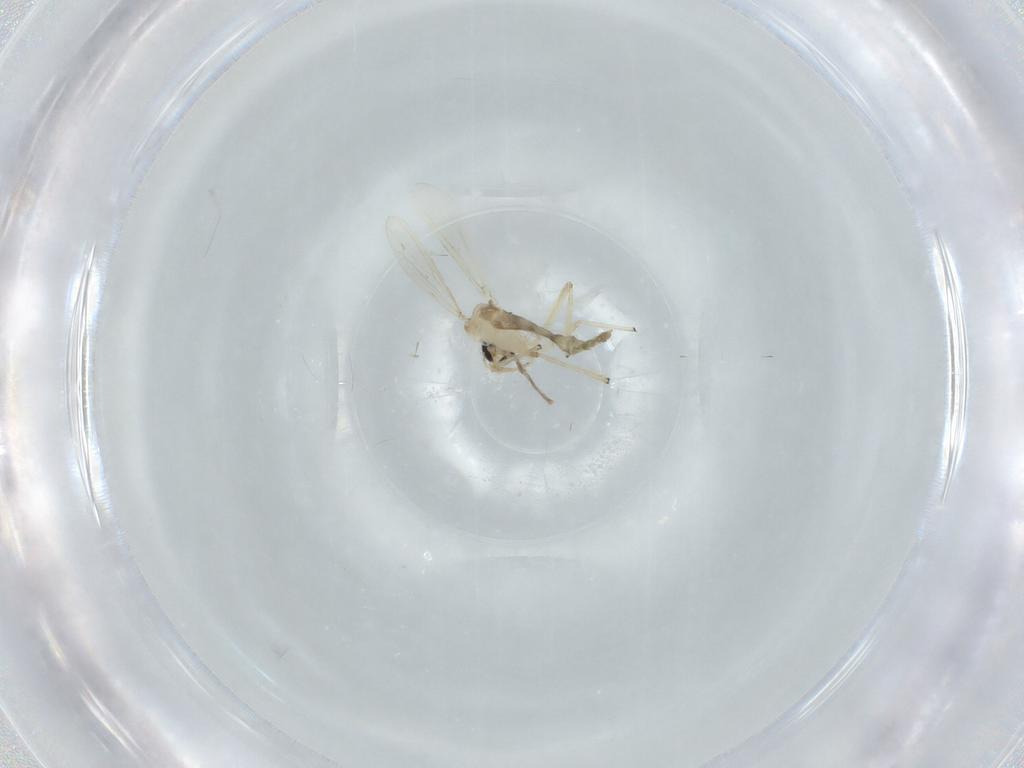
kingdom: Animalia
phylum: Arthropoda
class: Insecta
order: Diptera
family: Chironomidae
